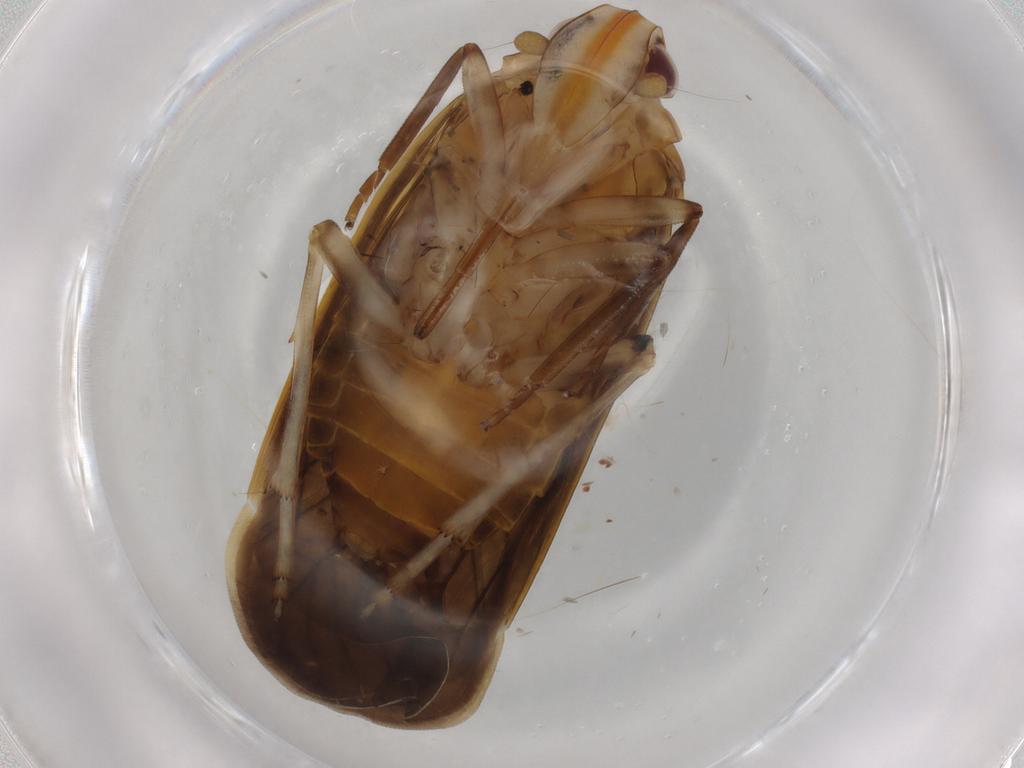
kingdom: Animalia
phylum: Arthropoda
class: Insecta
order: Hemiptera
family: Achilidae
